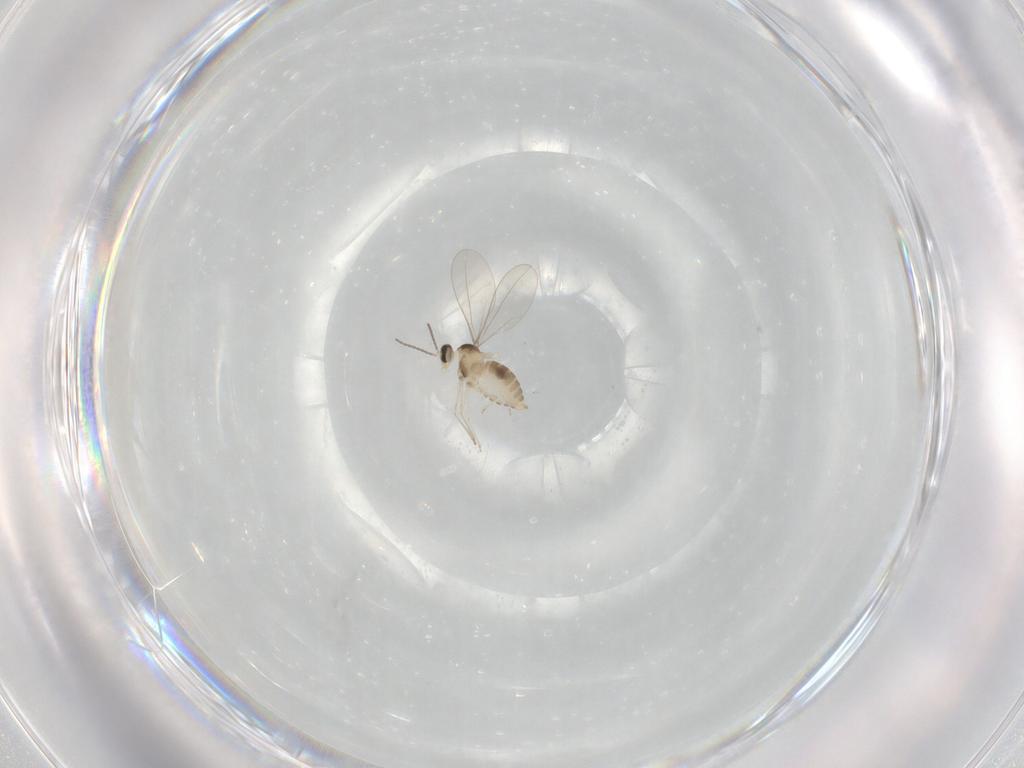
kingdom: Animalia
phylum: Arthropoda
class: Insecta
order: Diptera
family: Cecidomyiidae
